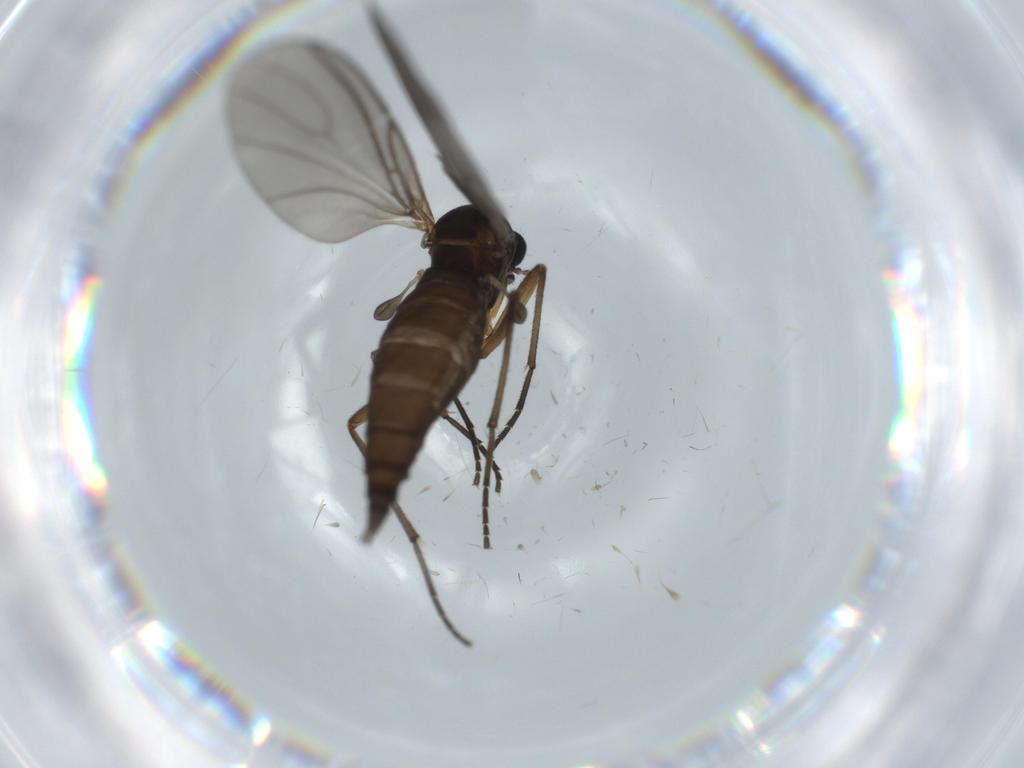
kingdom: Animalia
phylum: Arthropoda
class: Insecta
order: Diptera
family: Sciaridae
